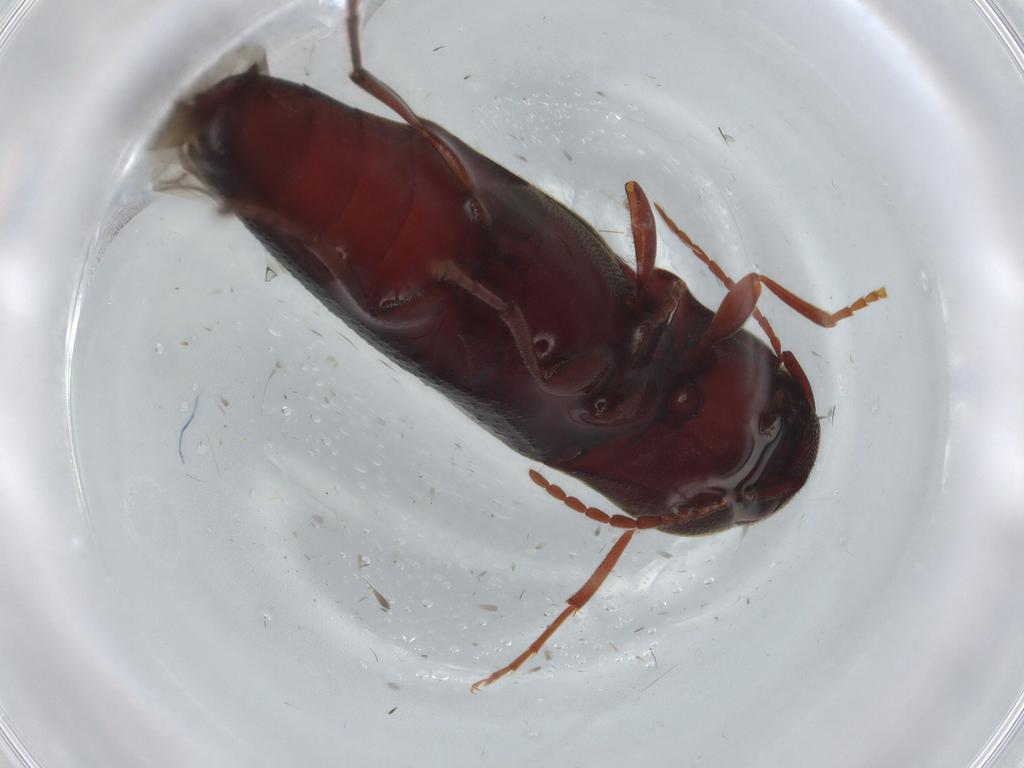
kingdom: Animalia
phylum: Arthropoda
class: Insecta
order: Coleoptera
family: Eucnemidae
